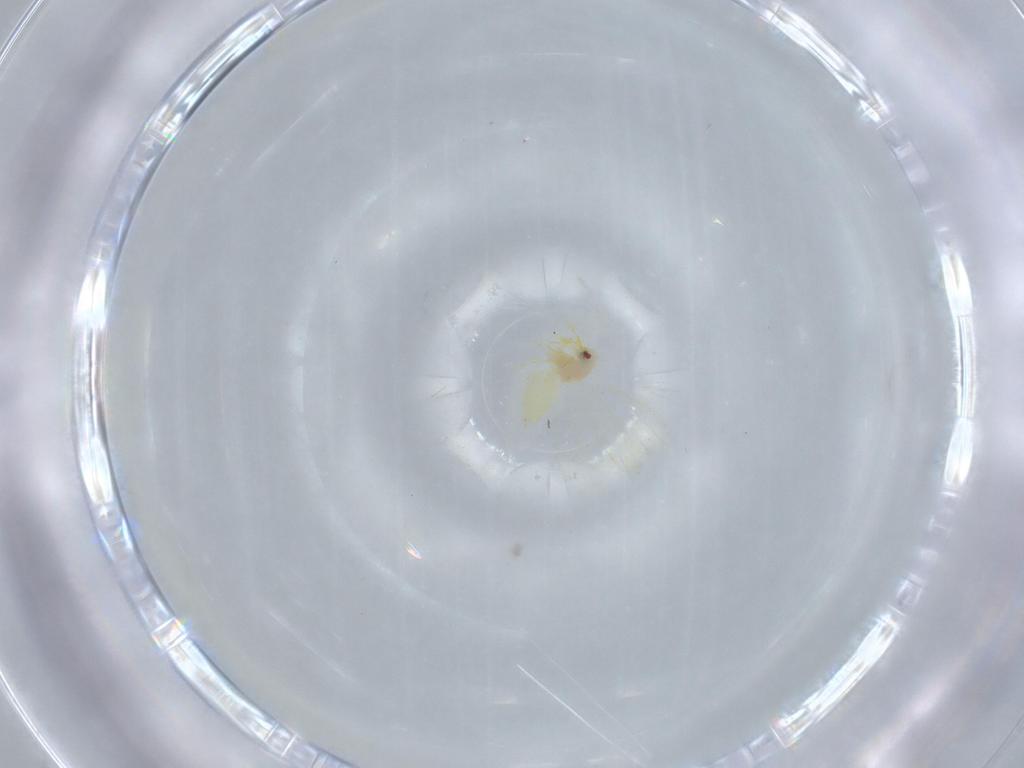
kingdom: Animalia
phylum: Arthropoda
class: Insecta
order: Hemiptera
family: Aleyrodidae
